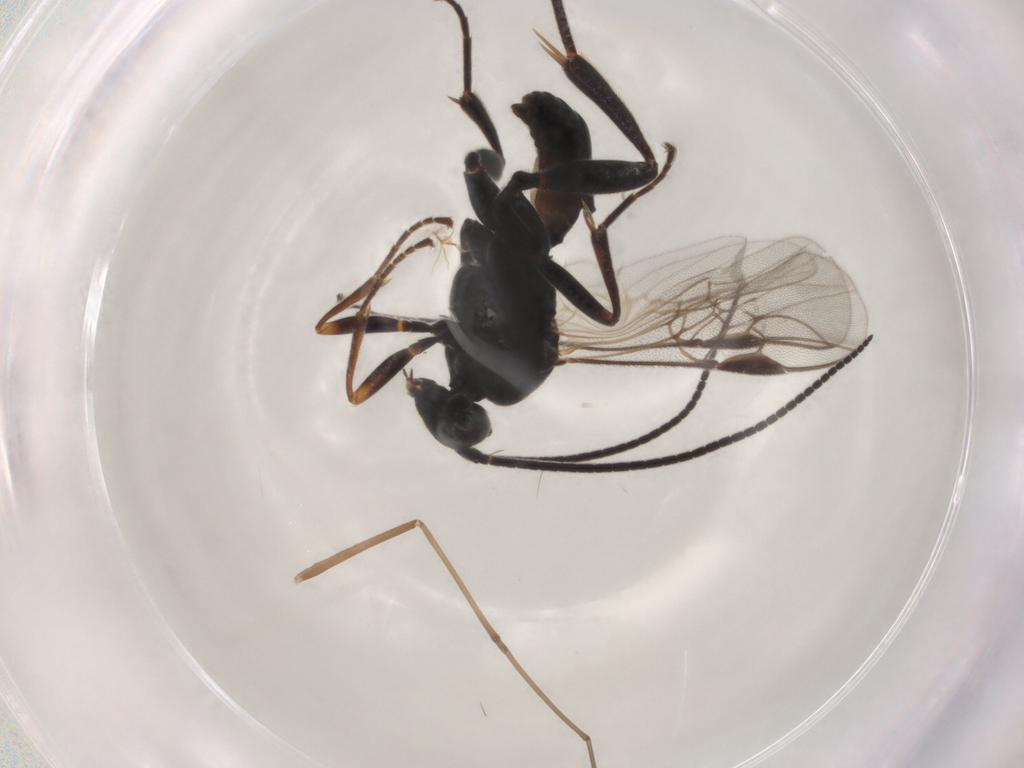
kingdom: Animalia
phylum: Arthropoda
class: Insecta
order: Hymenoptera
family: Braconidae
